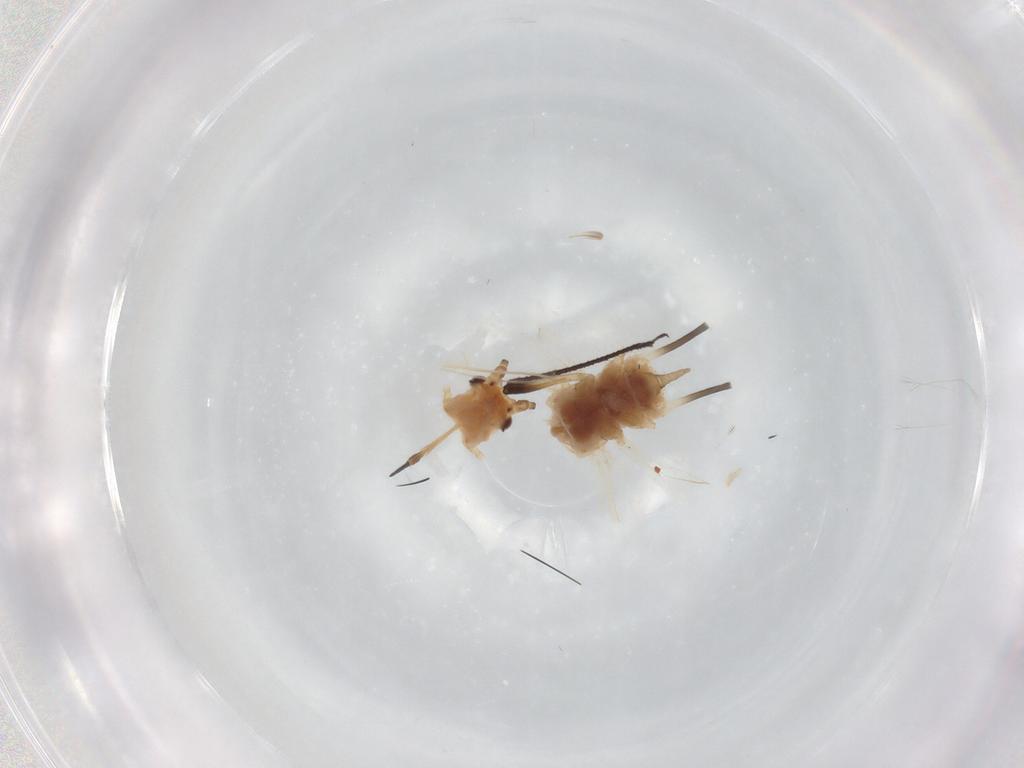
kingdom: Animalia
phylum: Arthropoda
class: Insecta
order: Hemiptera
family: Aphididae
